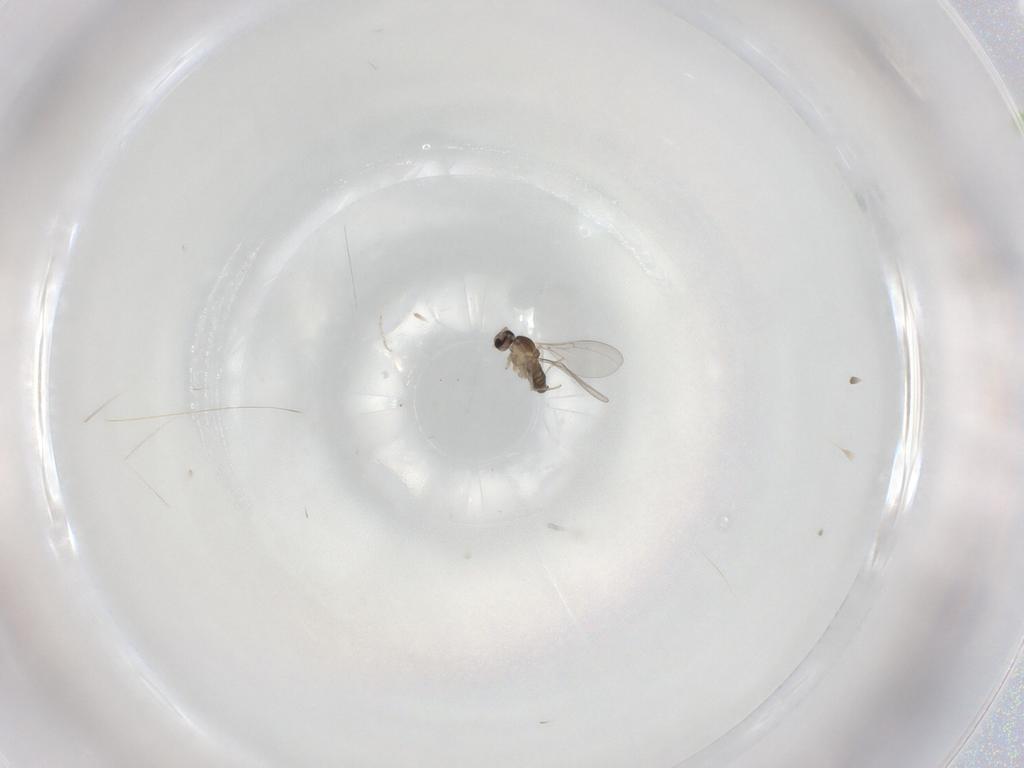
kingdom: Animalia
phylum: Arthropoda
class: Insecta
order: Diptera
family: Cecidomyiidae
